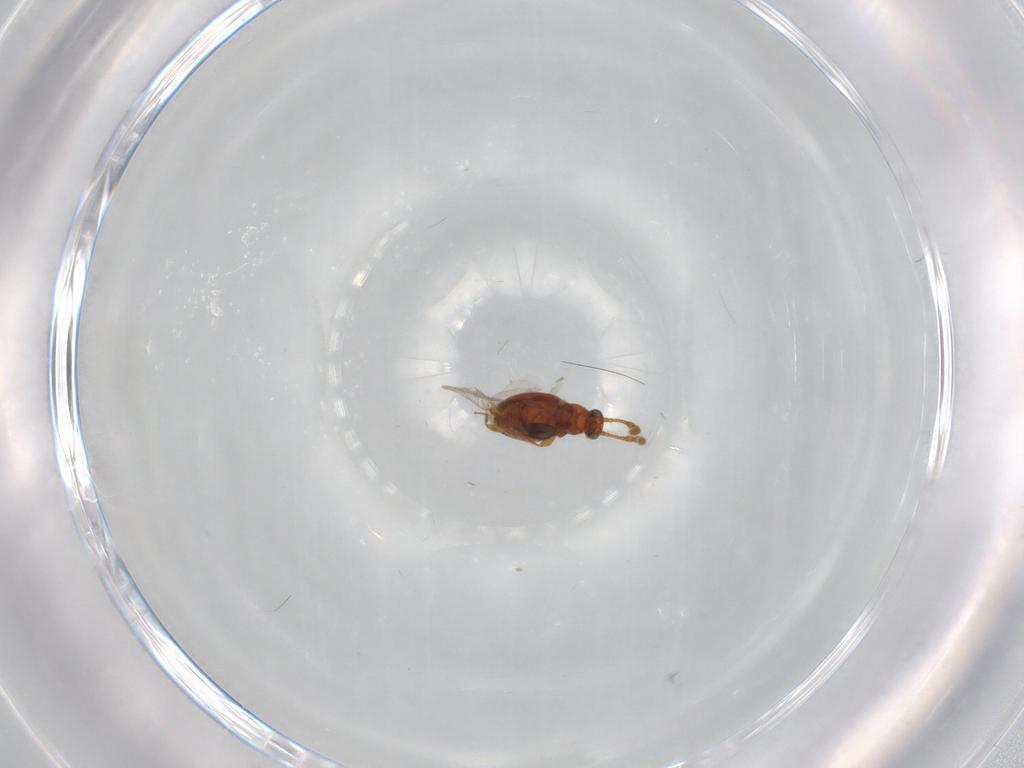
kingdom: Animalia
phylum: Arthropoda
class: Insecta
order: Coleoptera
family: Staphylinidae
